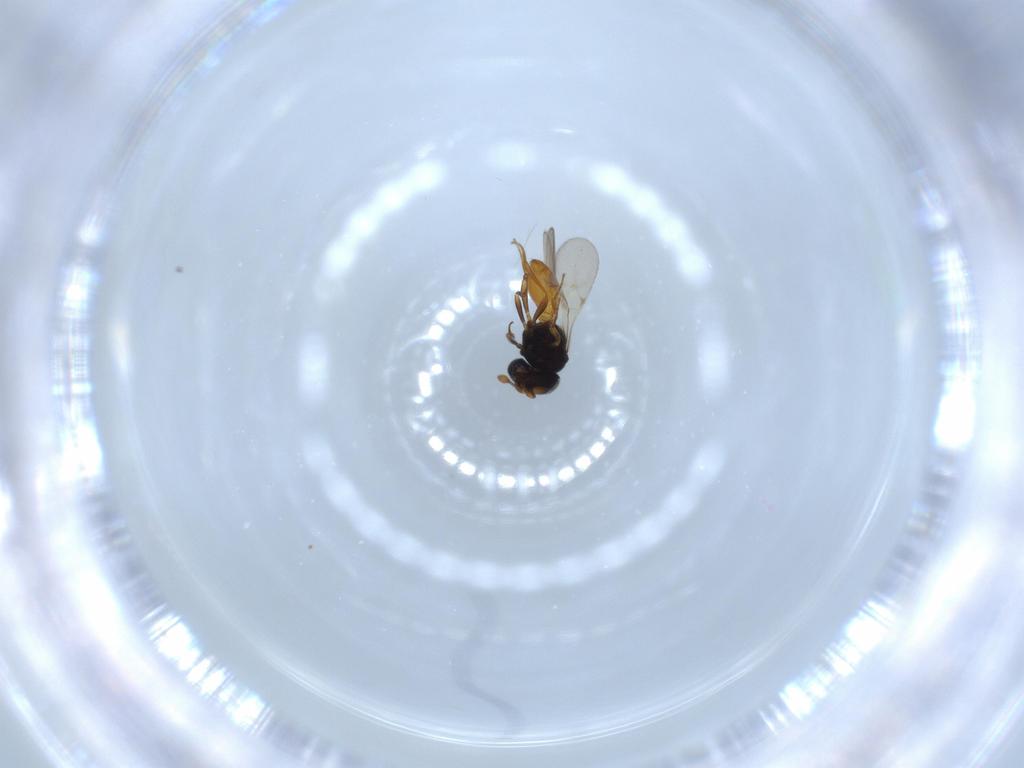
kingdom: Animalia
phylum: Arthropoda
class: Insecta
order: Hymenoptera
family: Scelionidae
